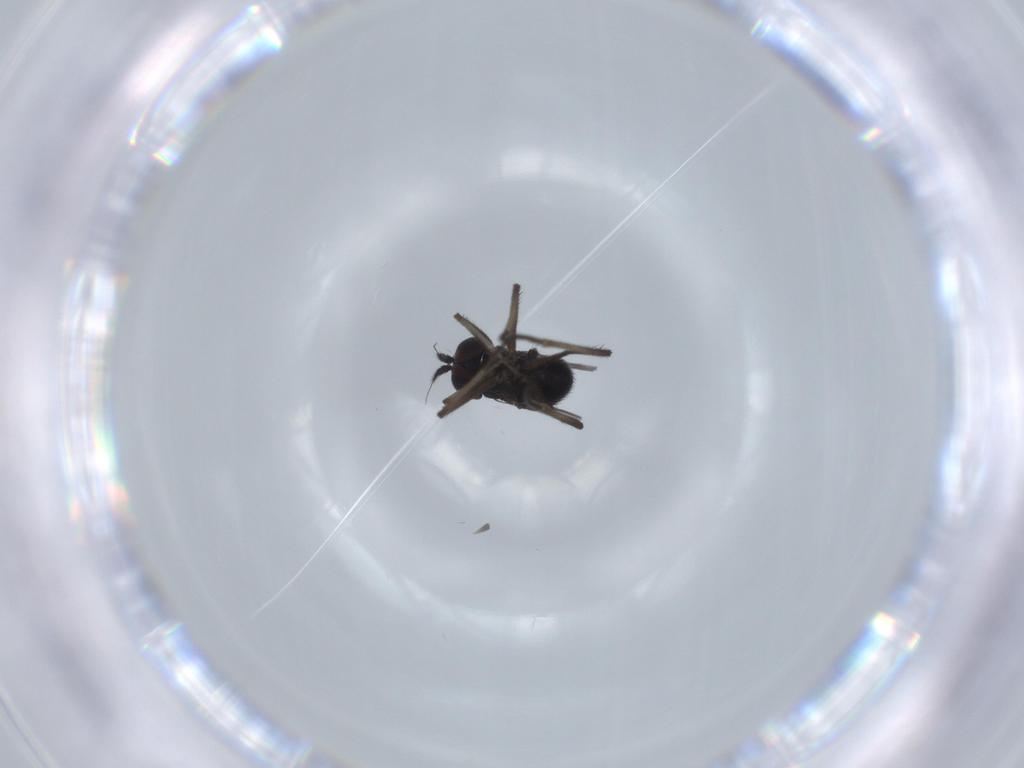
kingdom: Animalia
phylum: Arthropoda
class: Insecta
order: Diptera
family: Dolichopodidae
